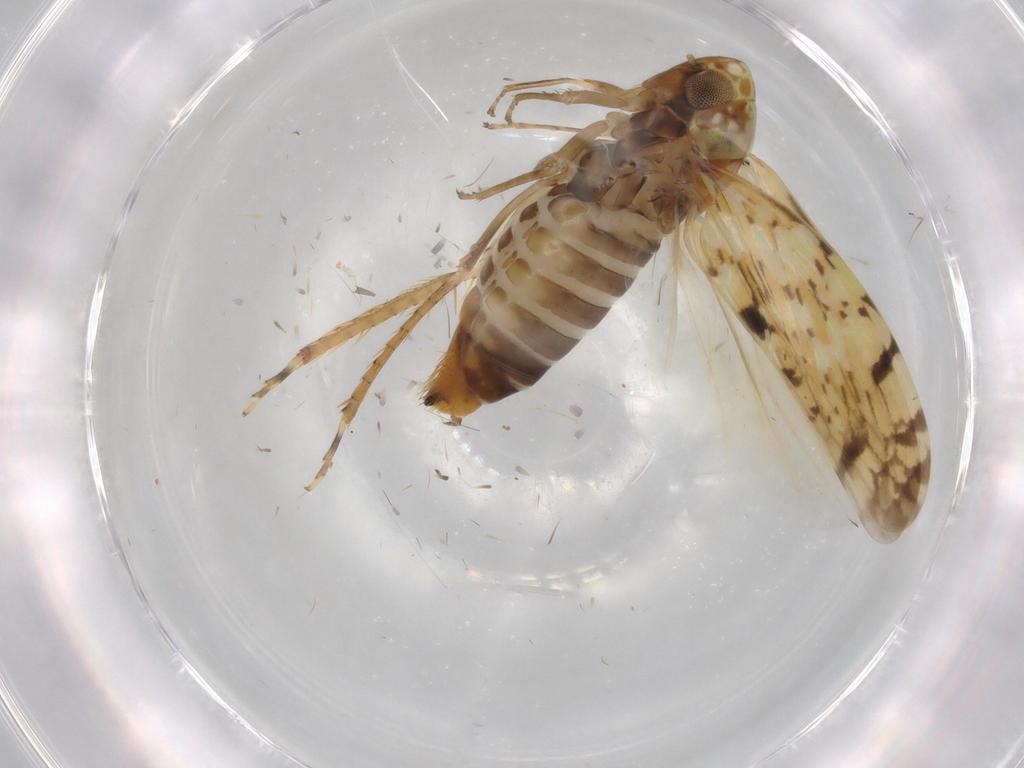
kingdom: Animalia
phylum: Arthropoda
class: Insecta
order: Hemiptera
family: Cicadellidae
